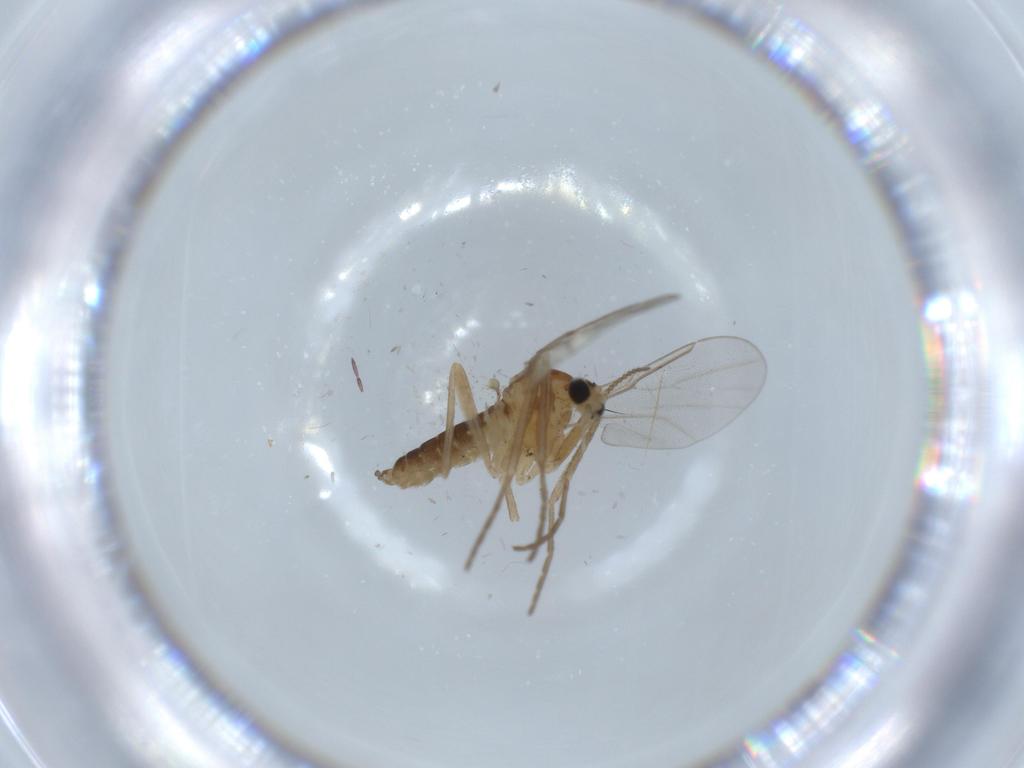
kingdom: Animalia
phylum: Arthropoda
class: Insecta
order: Diptera
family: Cecidomyiidae
